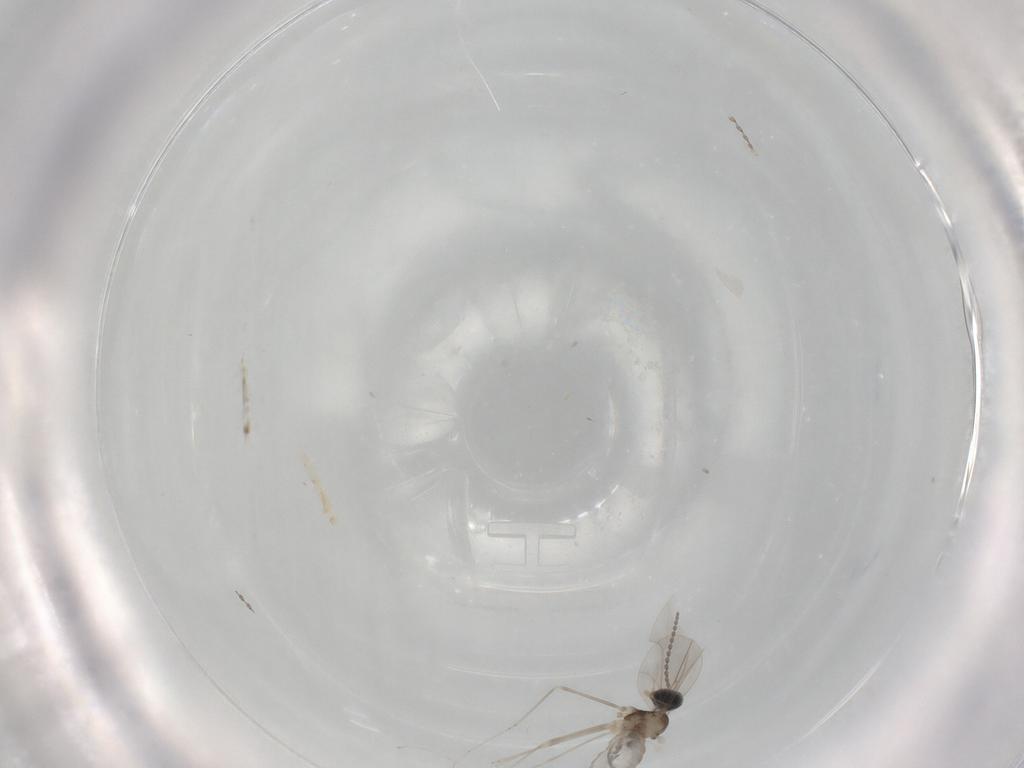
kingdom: Animalia
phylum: Arthropoda
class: Insecta
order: Diptera
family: Cecidomyiidae
